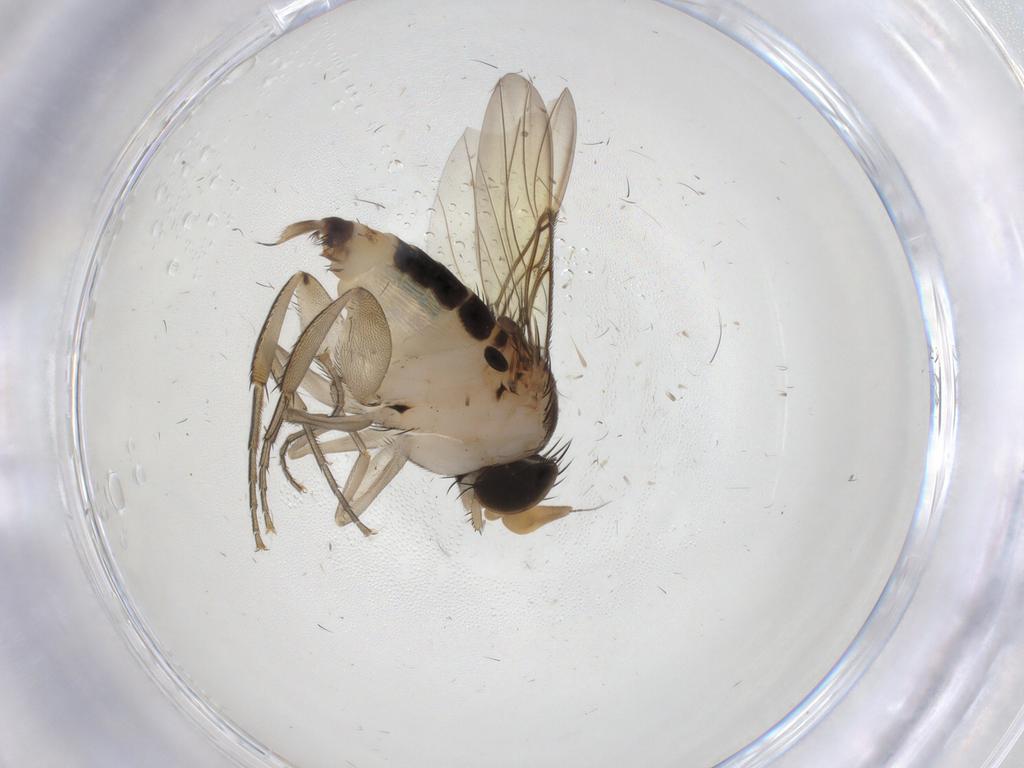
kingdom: Animalia
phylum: Arthropoda
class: Insecta
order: Diptera
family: Phoridae
